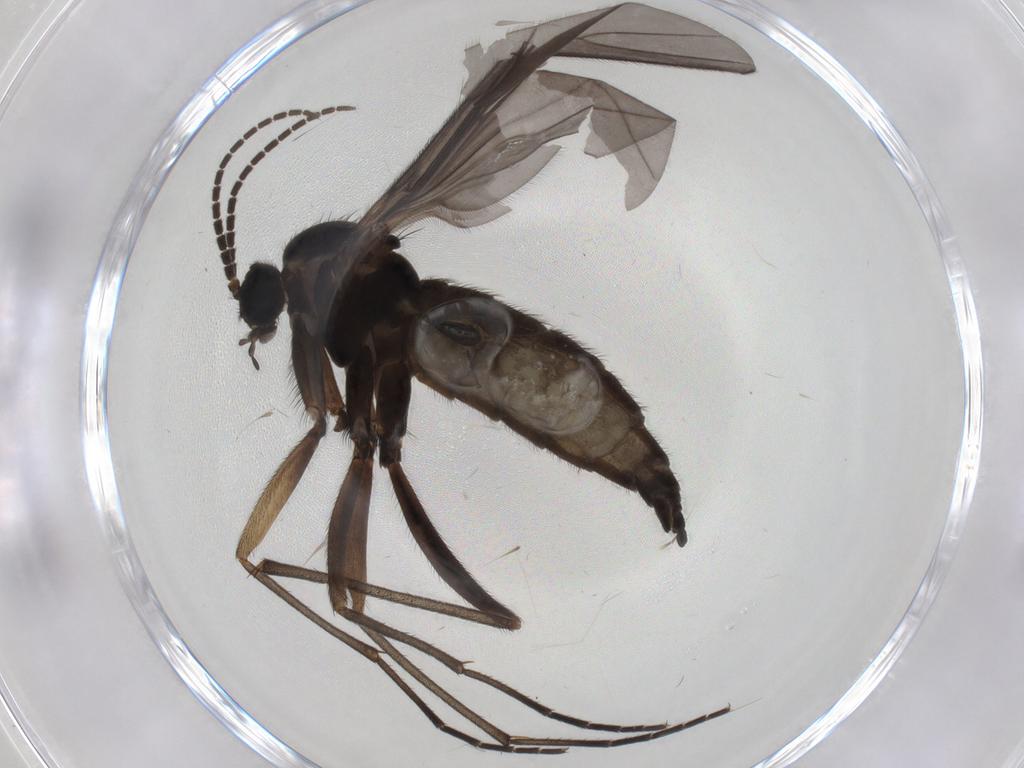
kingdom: Animalia
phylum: Arthropoda
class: Insecta
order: Diptera
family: Sciaridae
